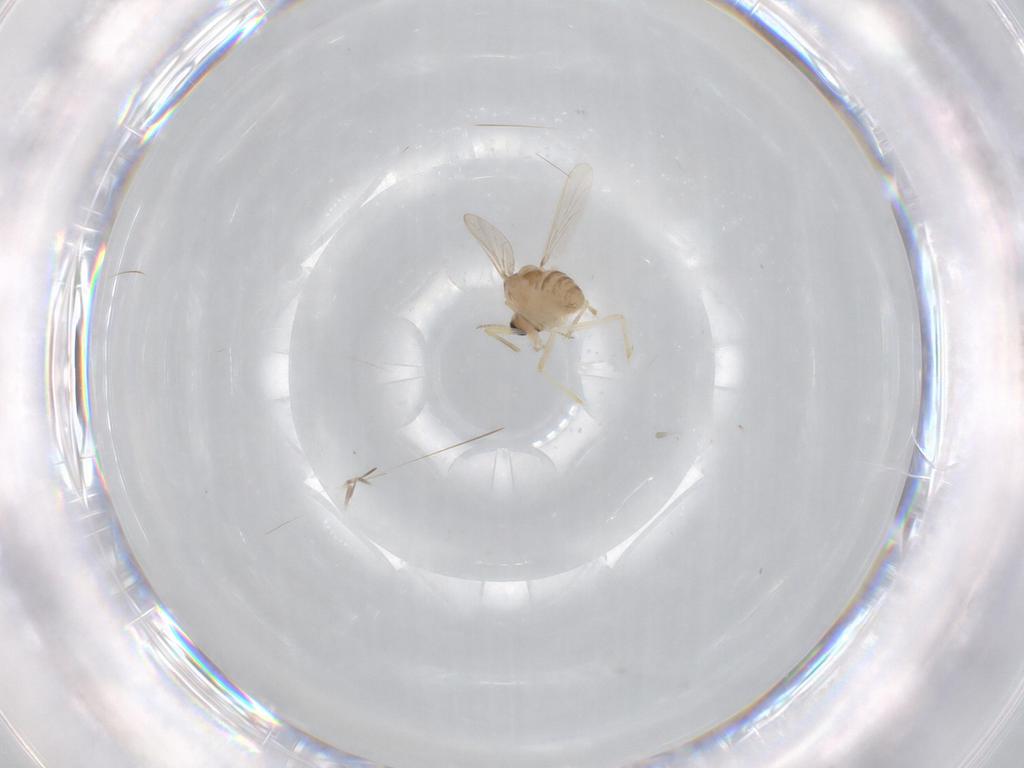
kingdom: Animalia
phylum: Arthropoda
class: Insecta
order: Diptera
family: Chironomidae
